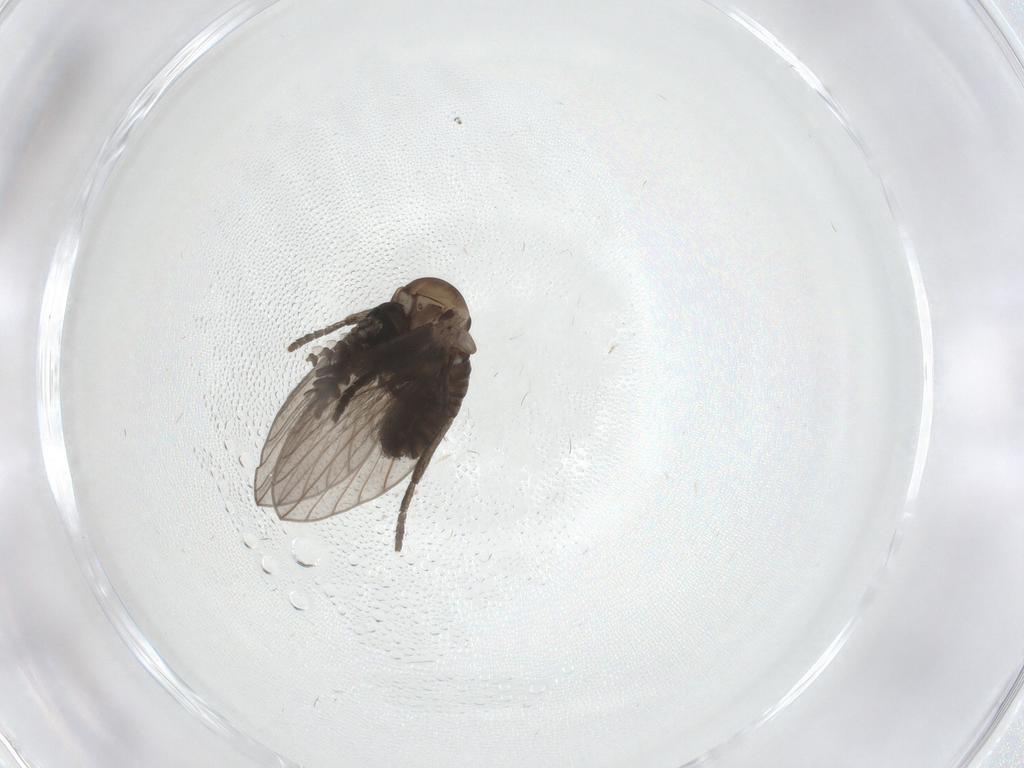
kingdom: Animalia
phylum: Arthropoda
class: Insecta
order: Diptera
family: Psychodidae
